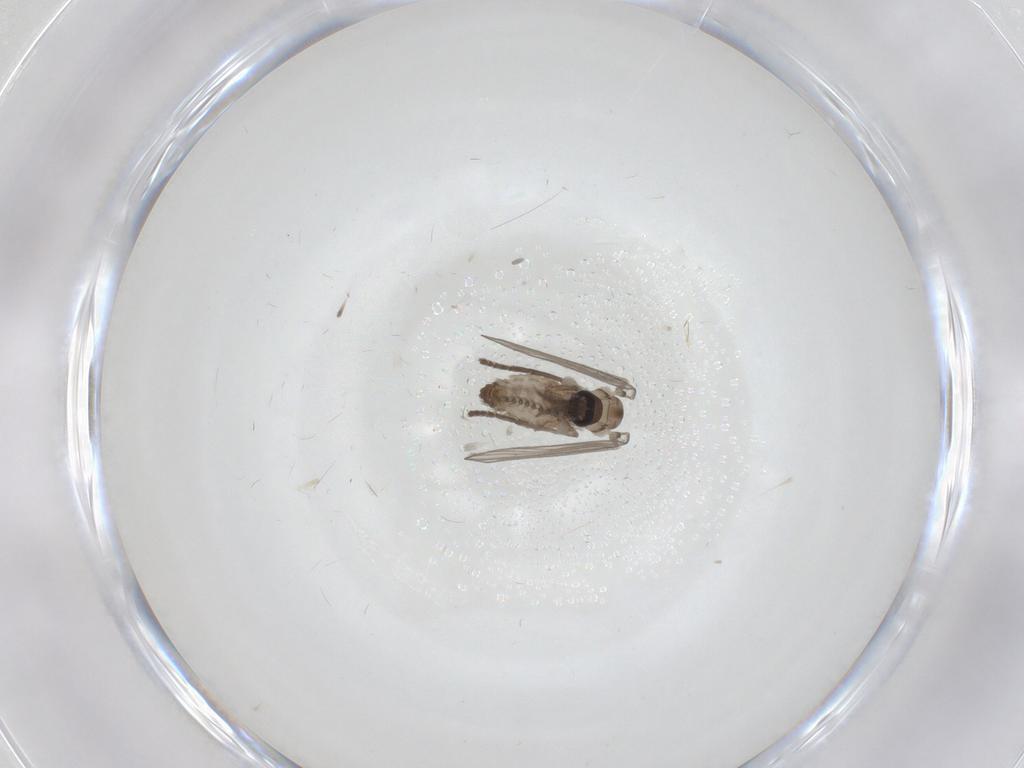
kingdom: Animalia
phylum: Arthropoda
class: Insecta
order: Diptera
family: Psychodidae
